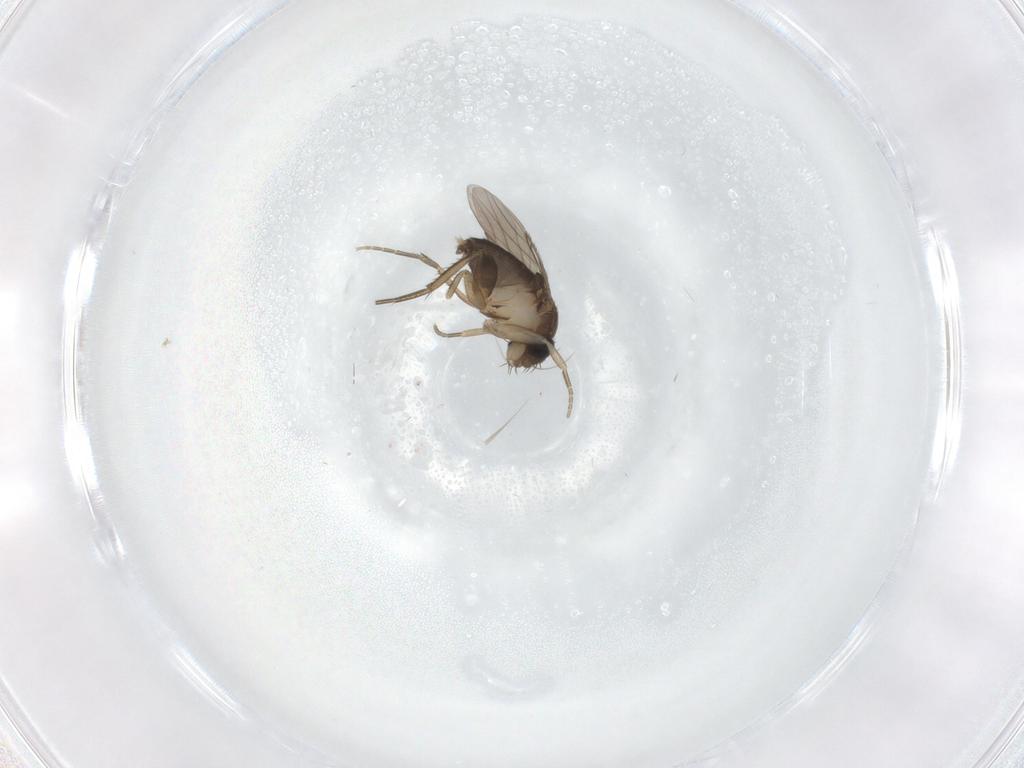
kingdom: Animalia
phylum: Arthropoda
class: Insecta
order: Diptera
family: Phoridae
